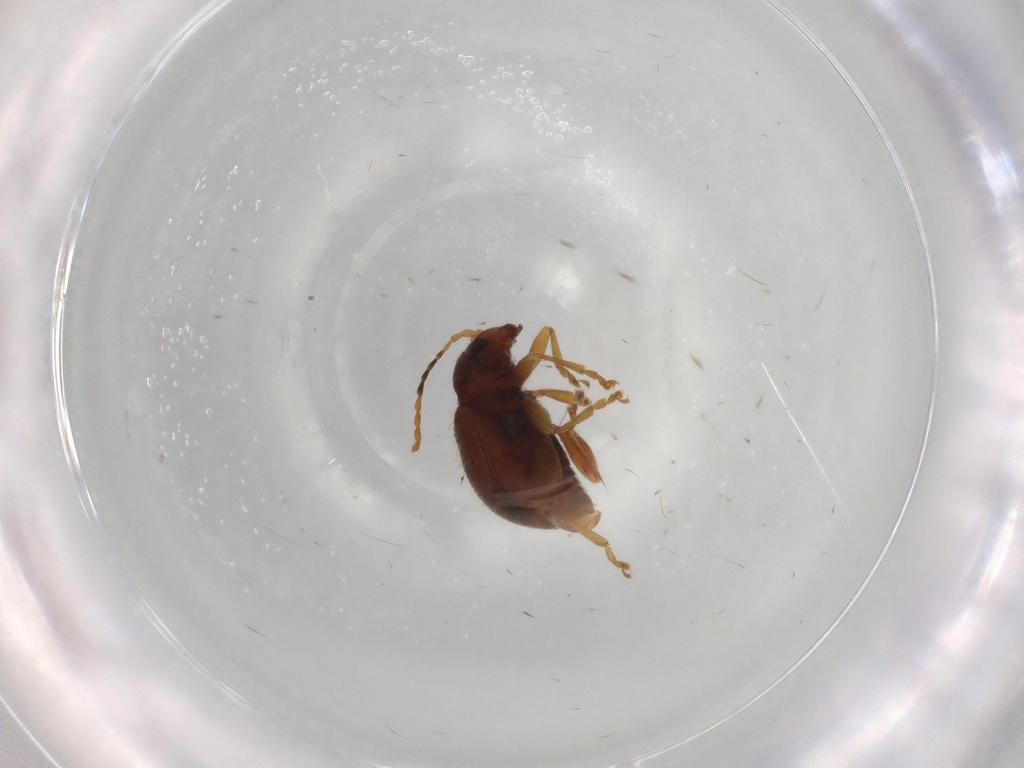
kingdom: Animalia
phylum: Arthropoda
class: Insecta
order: Coleoptera
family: Chrysomelidae
